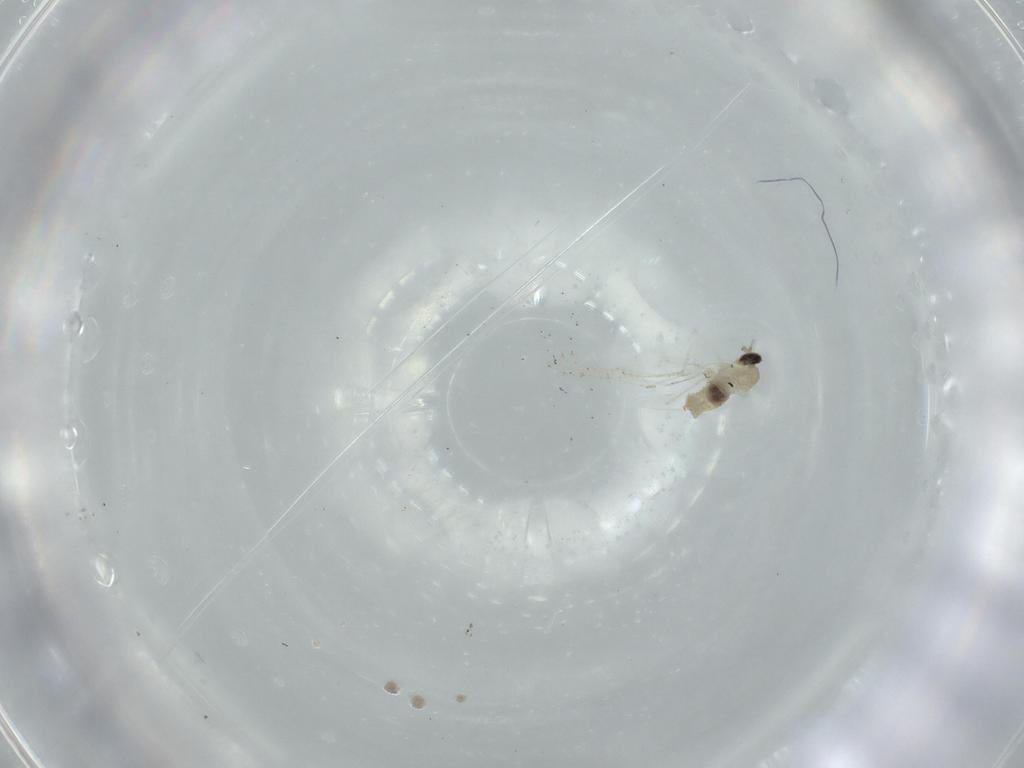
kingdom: Animalia
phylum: Arthropoda
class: Insecta
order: Diptera
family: Cecidomyiidae
